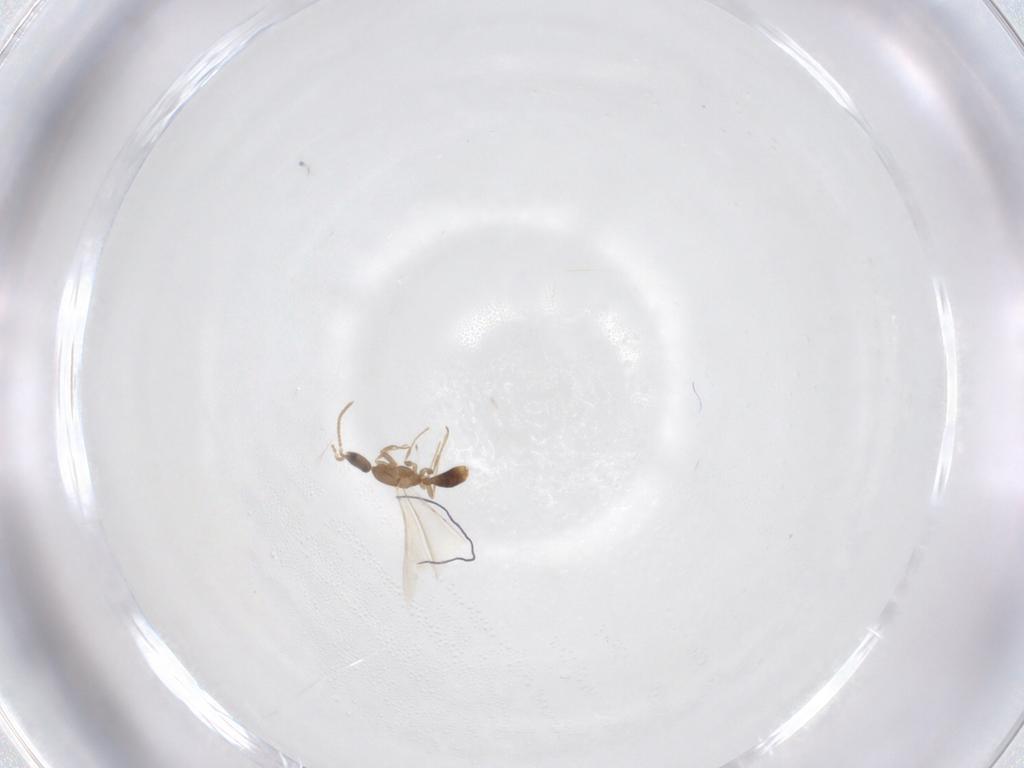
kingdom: Animalia
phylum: Arthropoda
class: Insecta
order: Hymenoptera
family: Formicidae
